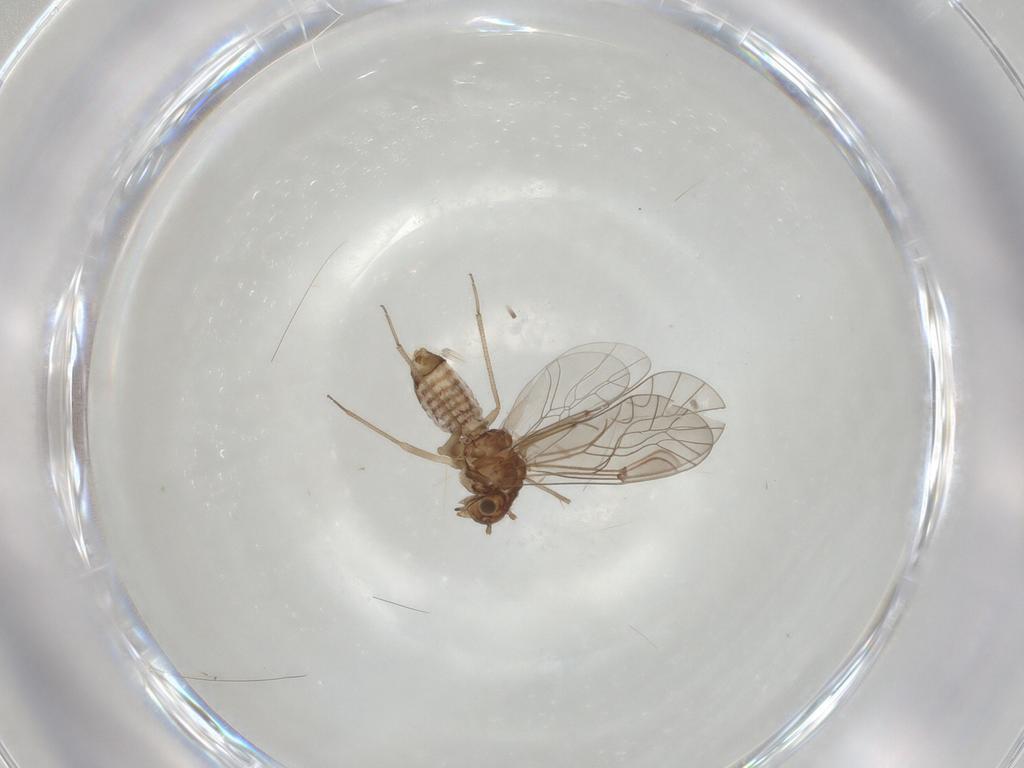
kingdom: Animalia
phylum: Arthropoda
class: Insecta
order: Psocodea
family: Lachesillidae
